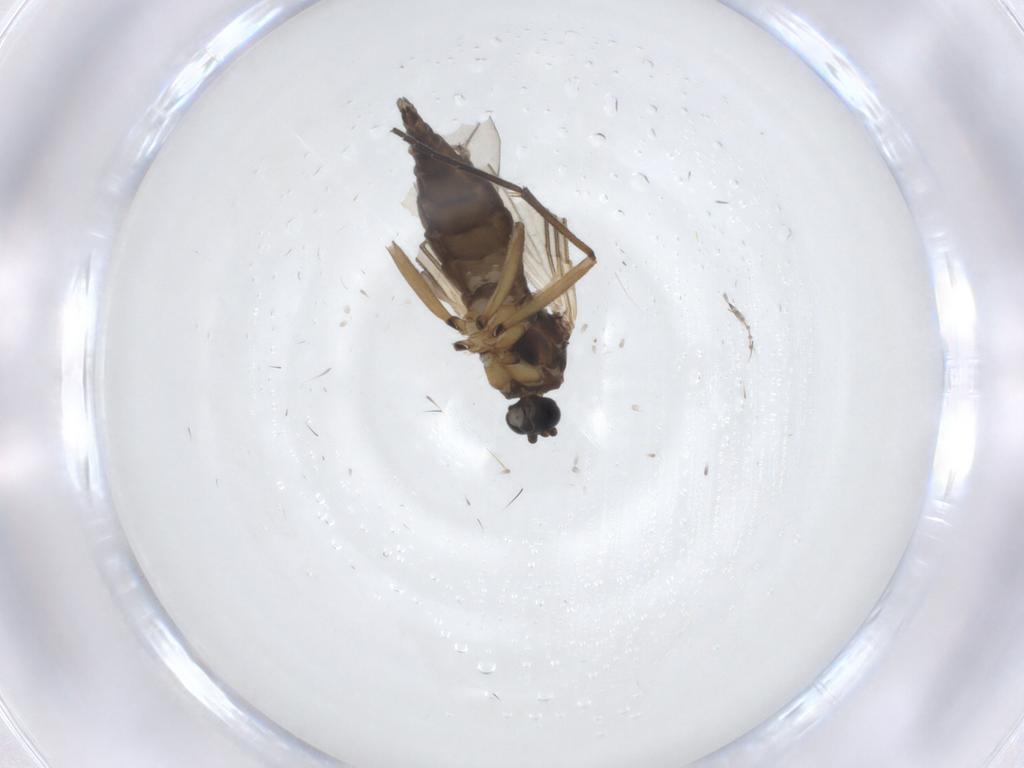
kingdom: Animalia
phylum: Arthropoda
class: Insecta
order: Diptera
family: Sciaridae
